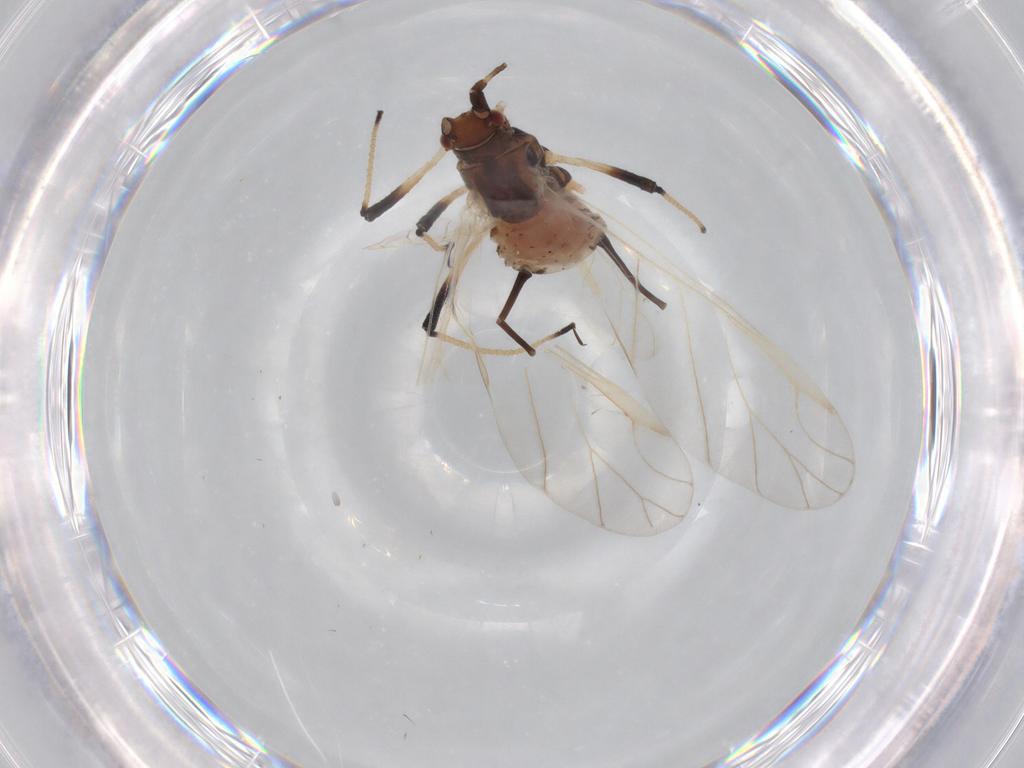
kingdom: Animalia
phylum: Arthropoda
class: Insecta
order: Hemiptera
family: Aphididae
